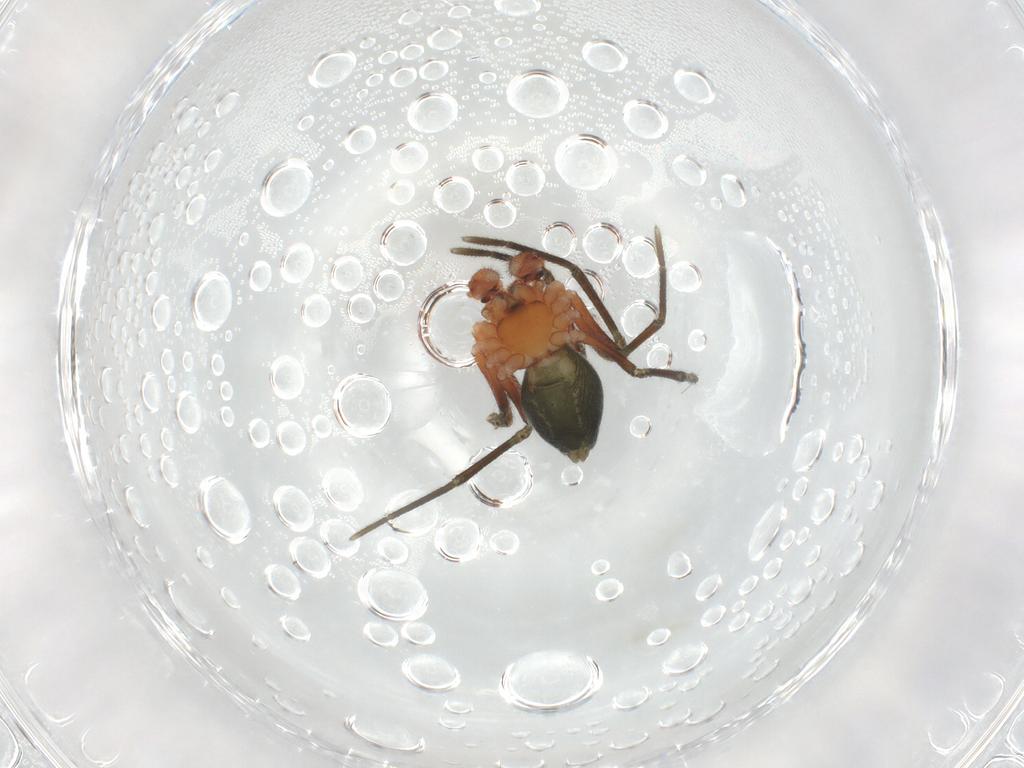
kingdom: Animalia
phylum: Arthropoda
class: Arachnida
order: Araneae
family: Linyphiidae
